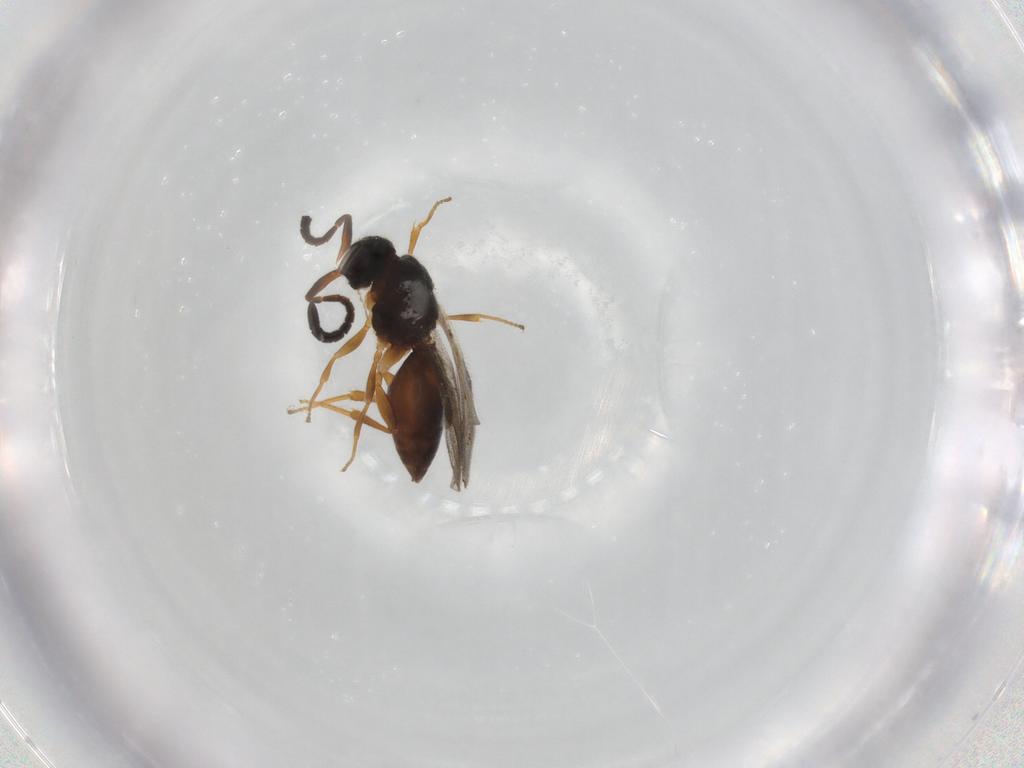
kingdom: Animalia
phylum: Arthropoda
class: Insecta
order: Hymenoptera
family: Megaspilidae
